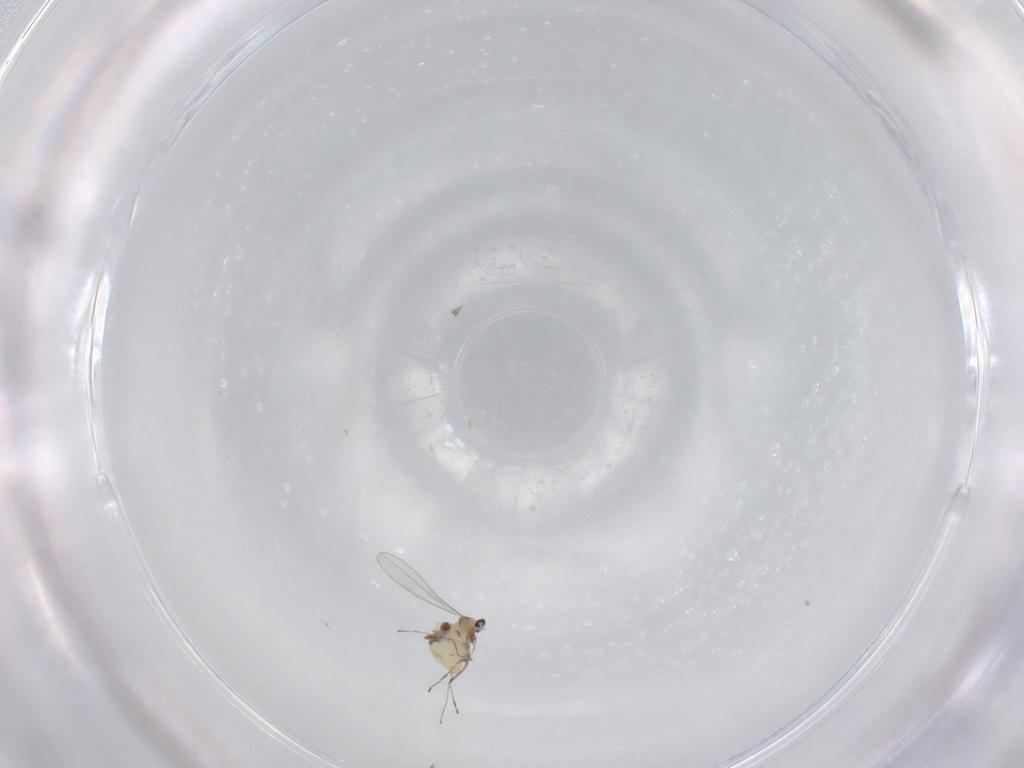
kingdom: Animalia
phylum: Arthropoda
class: Insecta
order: Diptera
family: Cecidomyiidae
